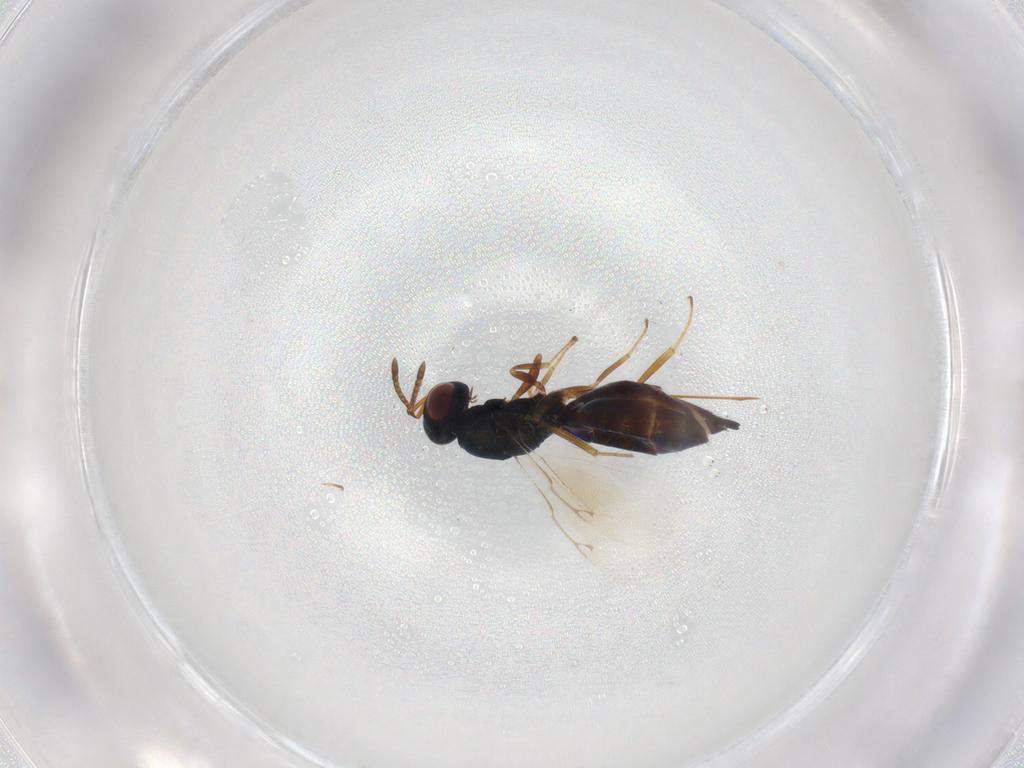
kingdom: Animalia
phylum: Arthropoda
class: Insecta
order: Hymenoptera
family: Pteromalidae
